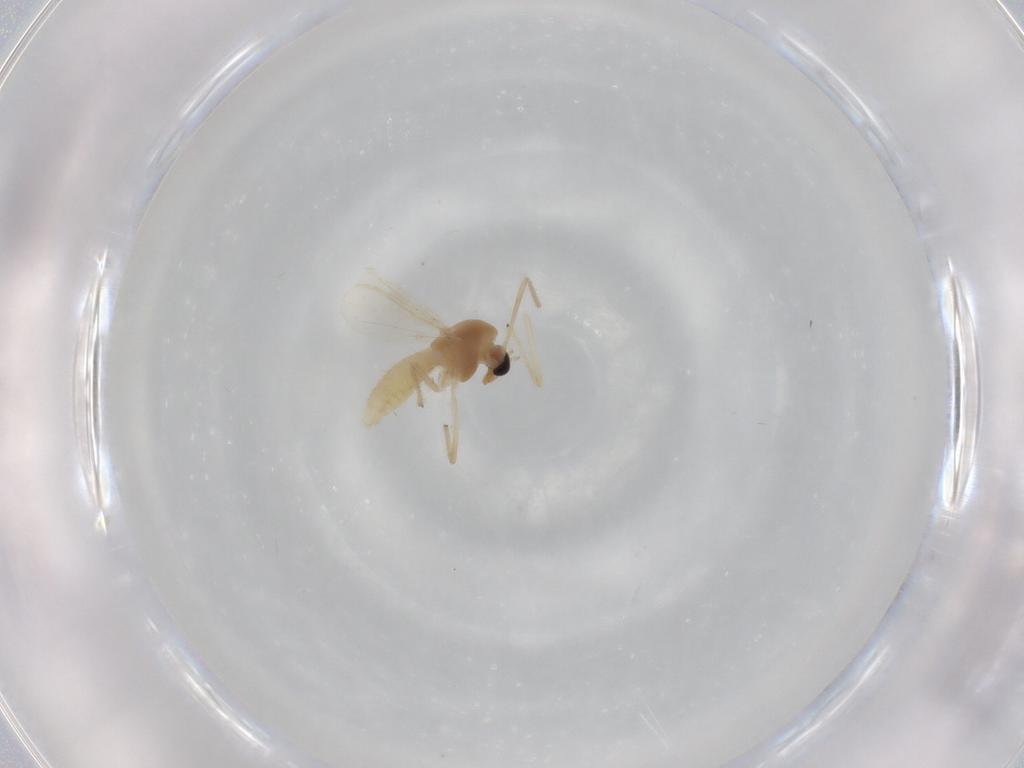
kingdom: Animalia
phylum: Arthropoda
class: Insecta
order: Diptera
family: Chironomidae
